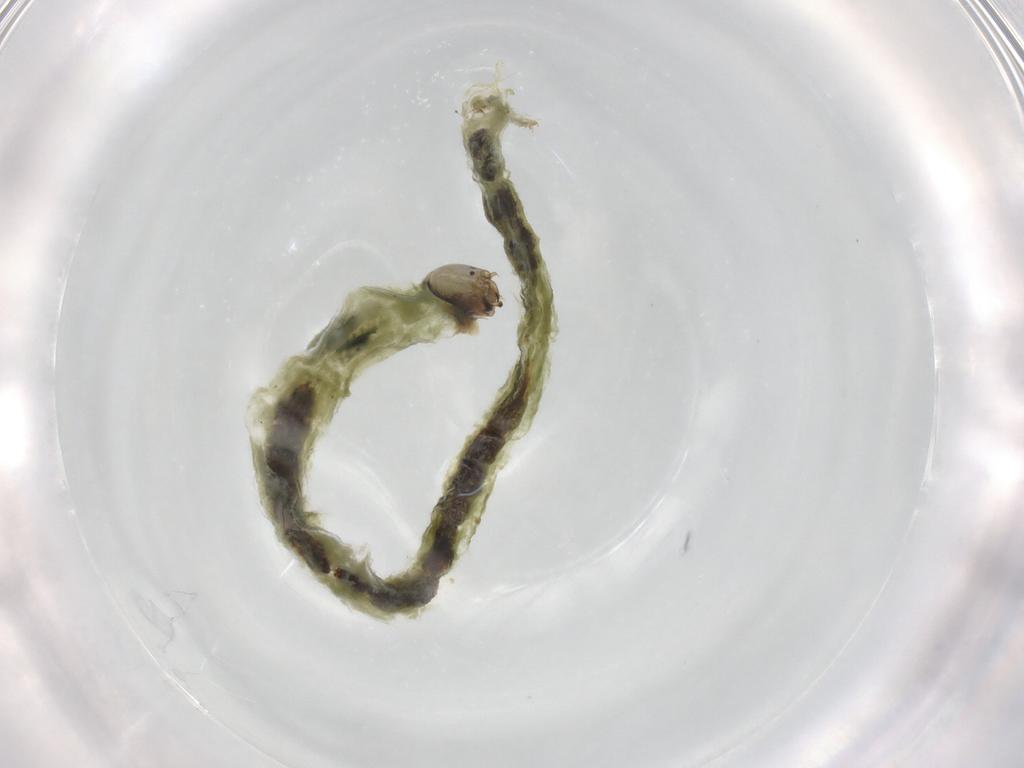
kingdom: Animalia
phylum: Arthropoda
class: Insecta
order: Diptera
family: Chironomidae
